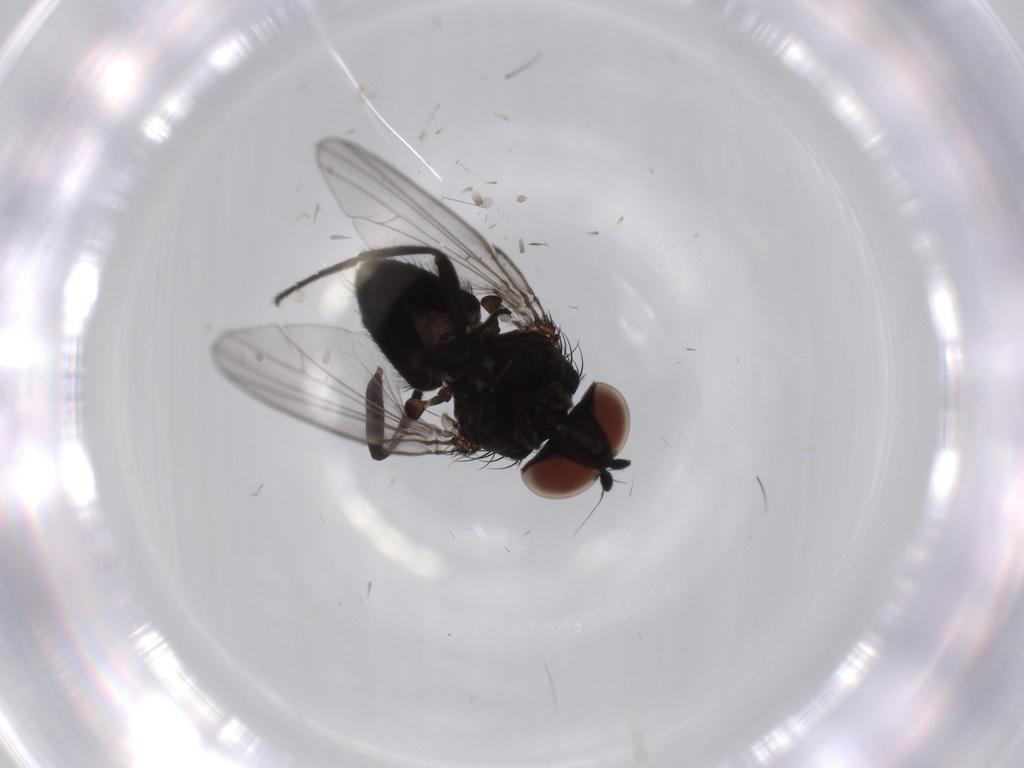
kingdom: Animalia
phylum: Arthropoda
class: Insecta
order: Diptera
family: Milichiidae
